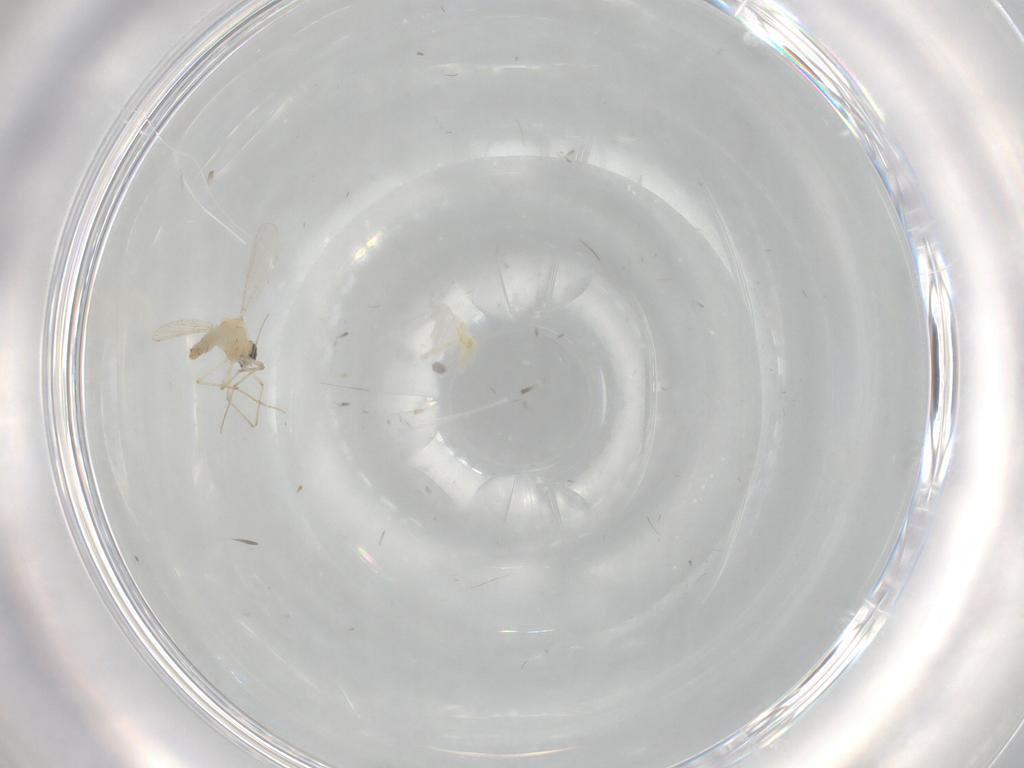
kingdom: Animalia
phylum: Arthropoda
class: Insecta
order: Diptera
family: Chironomidae
